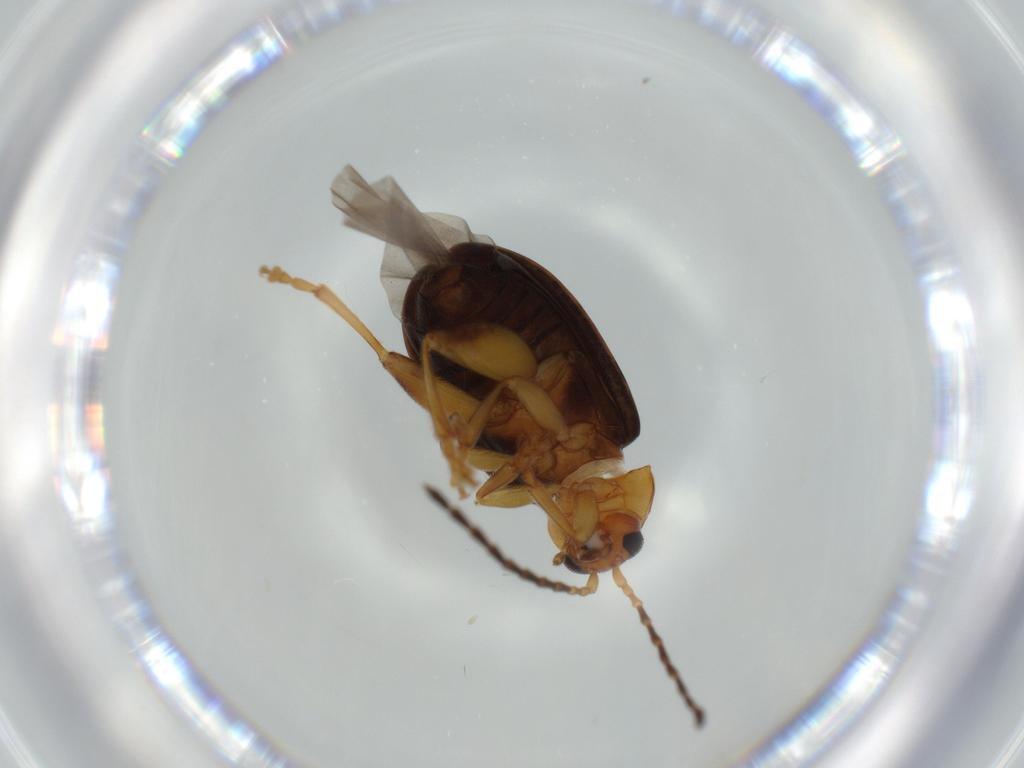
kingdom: Animalia
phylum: Arthropoda
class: Insecta
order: Coleoptera
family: Chrysomelidae
